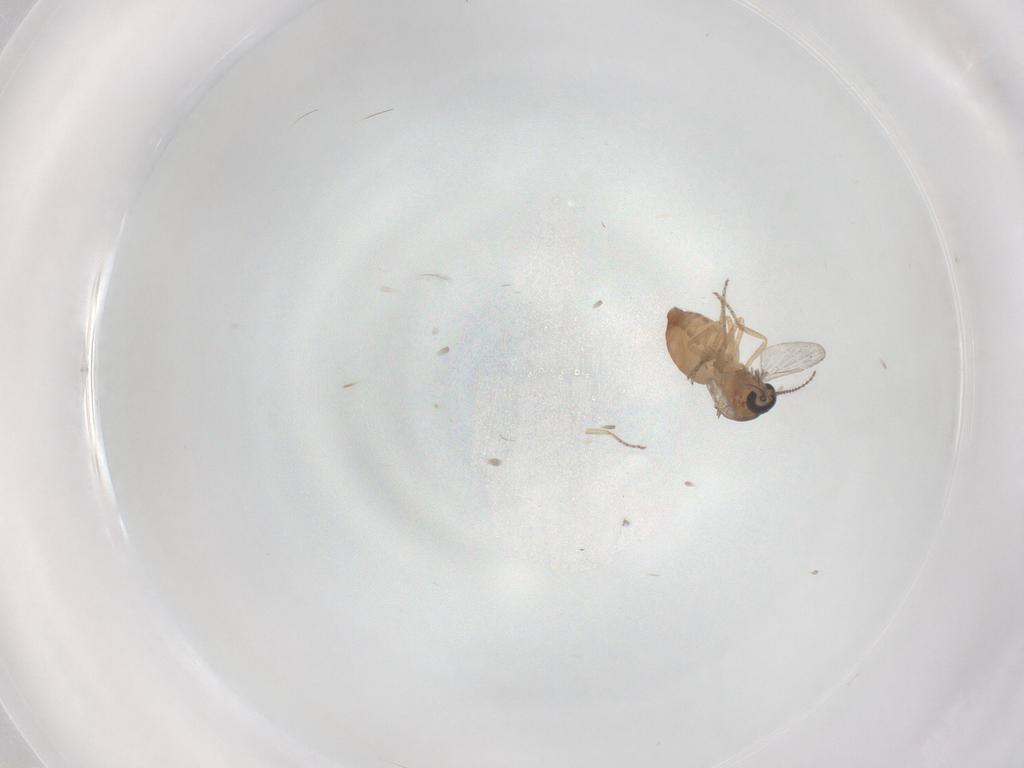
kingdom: Animalia
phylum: Arthropoda
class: Insecta
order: Diptera
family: Ceratopogonidae
